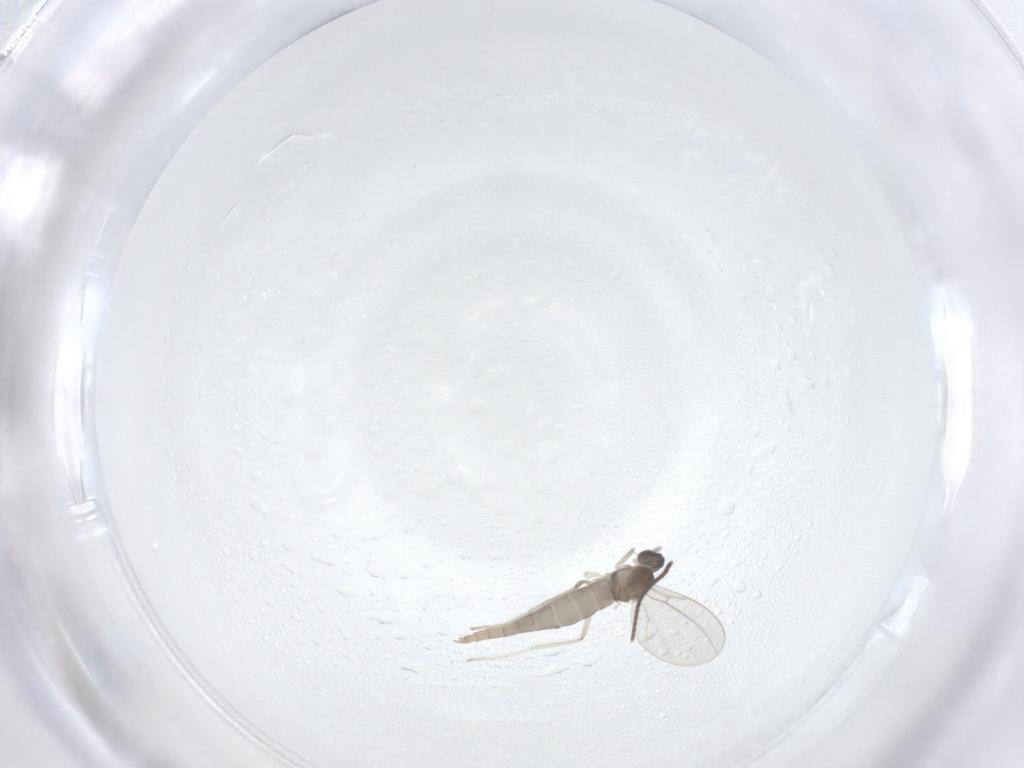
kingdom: Animalia
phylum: Arthropoda
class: Insecta
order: Diptera
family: Cecidomyiidae
